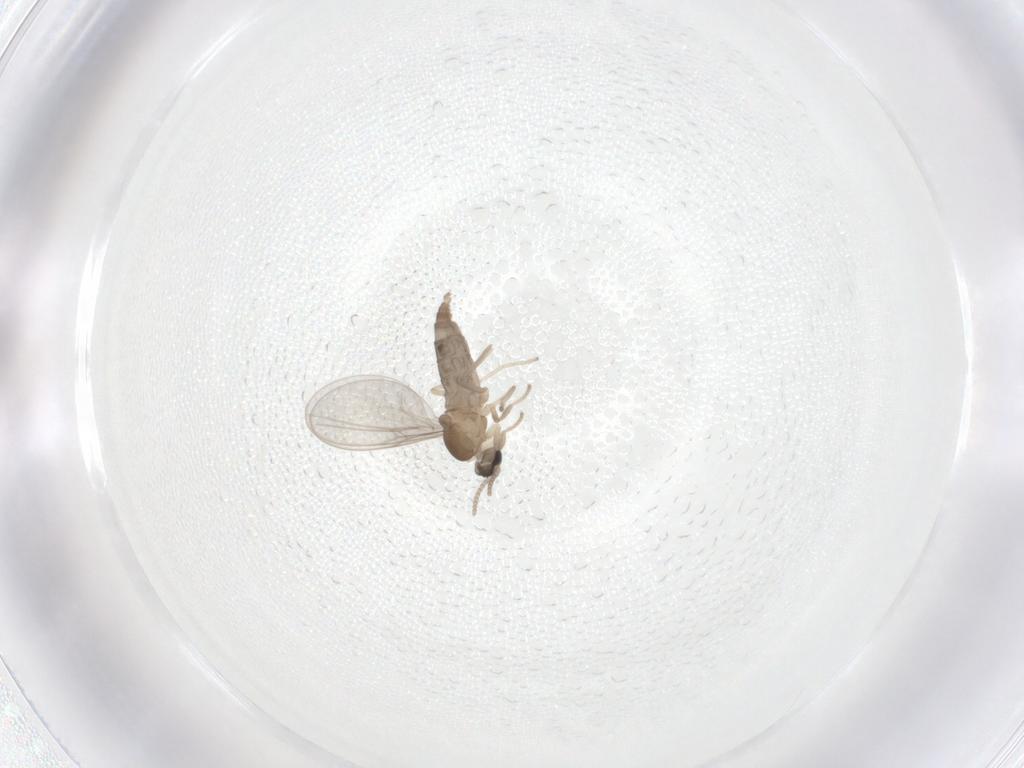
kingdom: Animalia
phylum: Arthropoda
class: Insecta
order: Diptera
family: Cecidomyiidae
